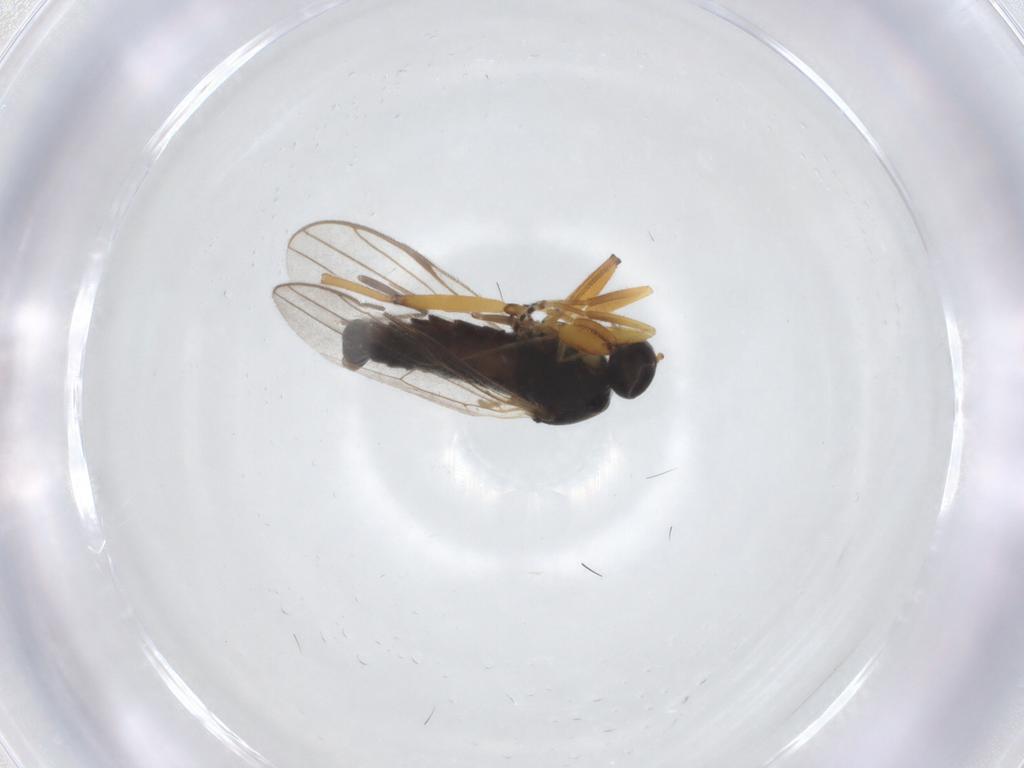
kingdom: Animalia
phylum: Arthropoda
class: Insecta
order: Diptera
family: Hybotidae
